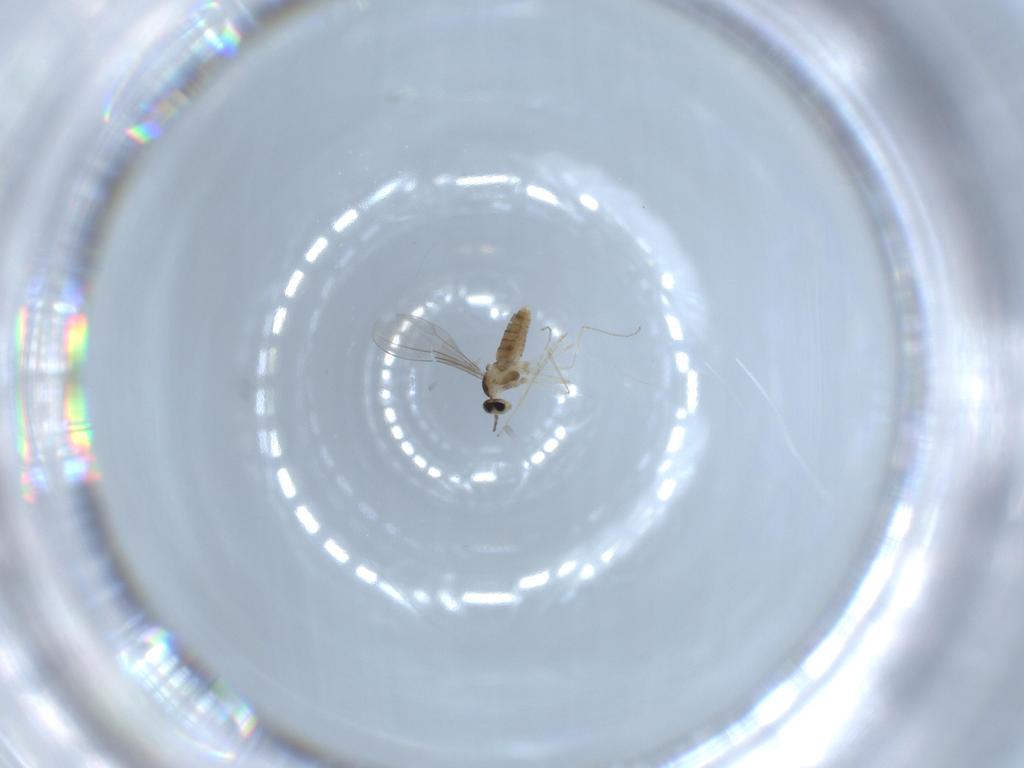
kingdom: Animalia
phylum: Arthropoda
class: Insecta
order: Diptera
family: Cecidomyiidae
